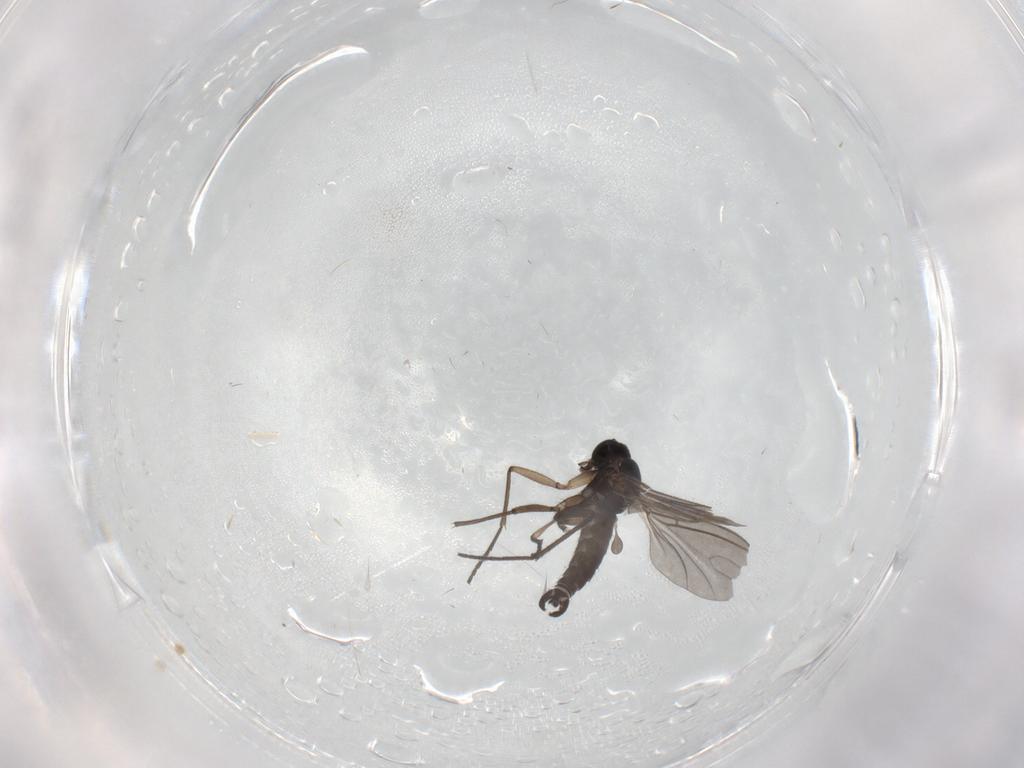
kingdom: Animalia
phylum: Arthropoda
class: Insecta
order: Diptera
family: Sciaridae
